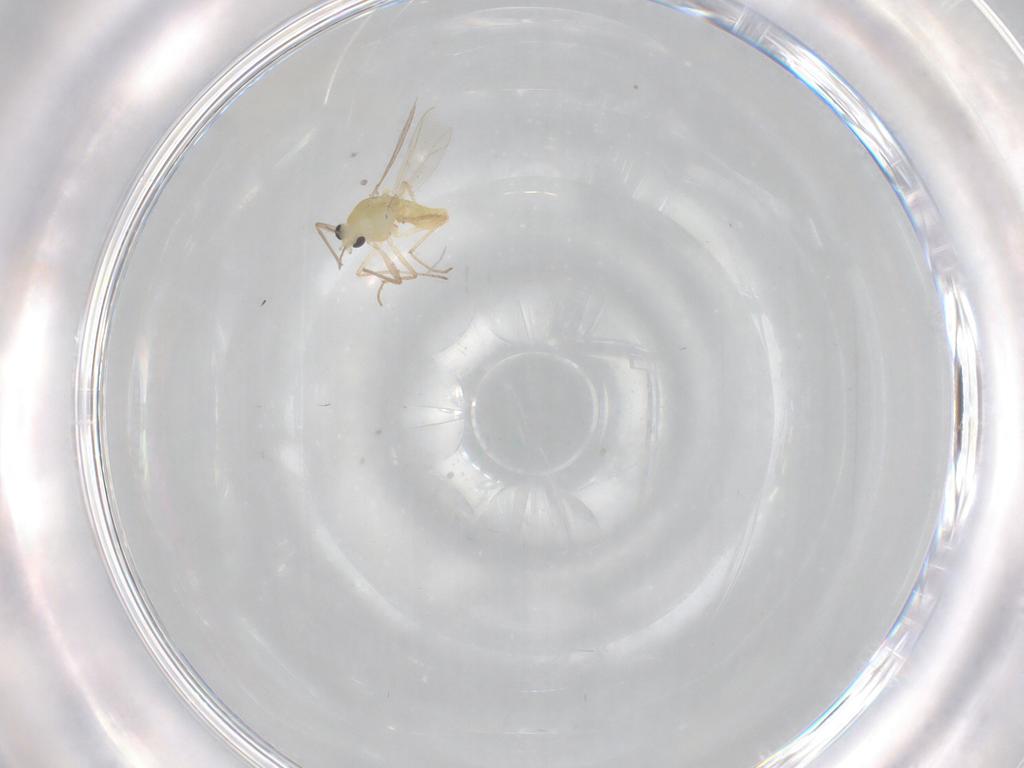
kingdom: Animalia
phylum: Arthropoda
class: Insecta
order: Diptera
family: Chironomidae
